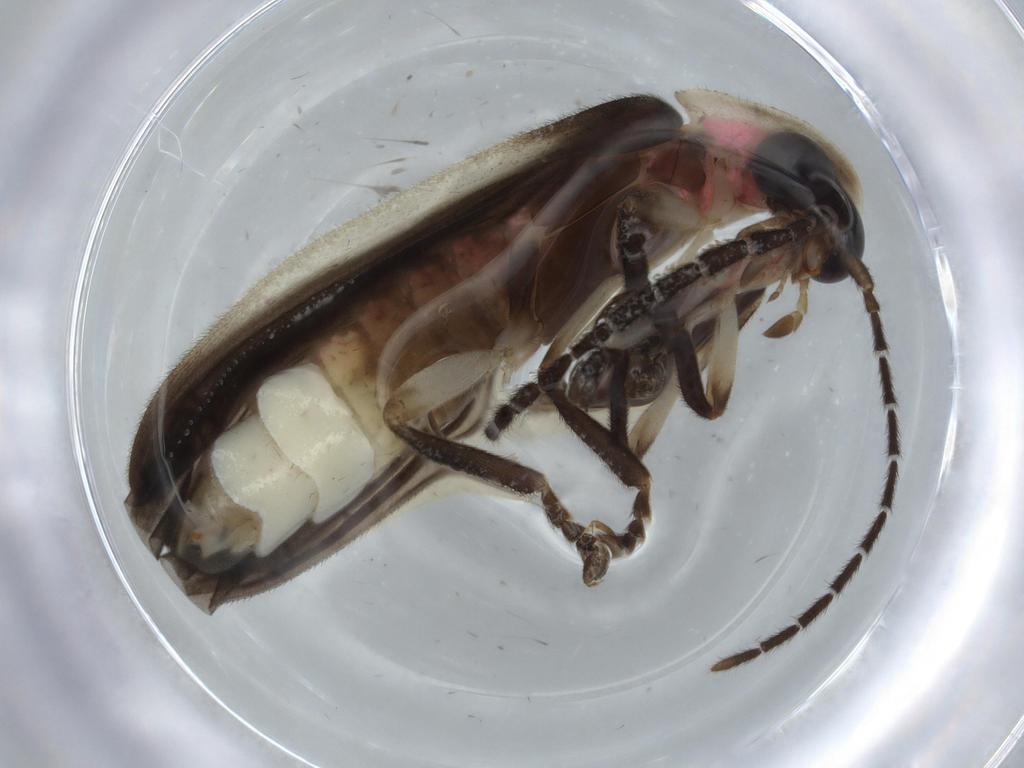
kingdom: Animalia
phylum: Arthropoda
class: Insecta
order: Coleoptera
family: Lampyridae
